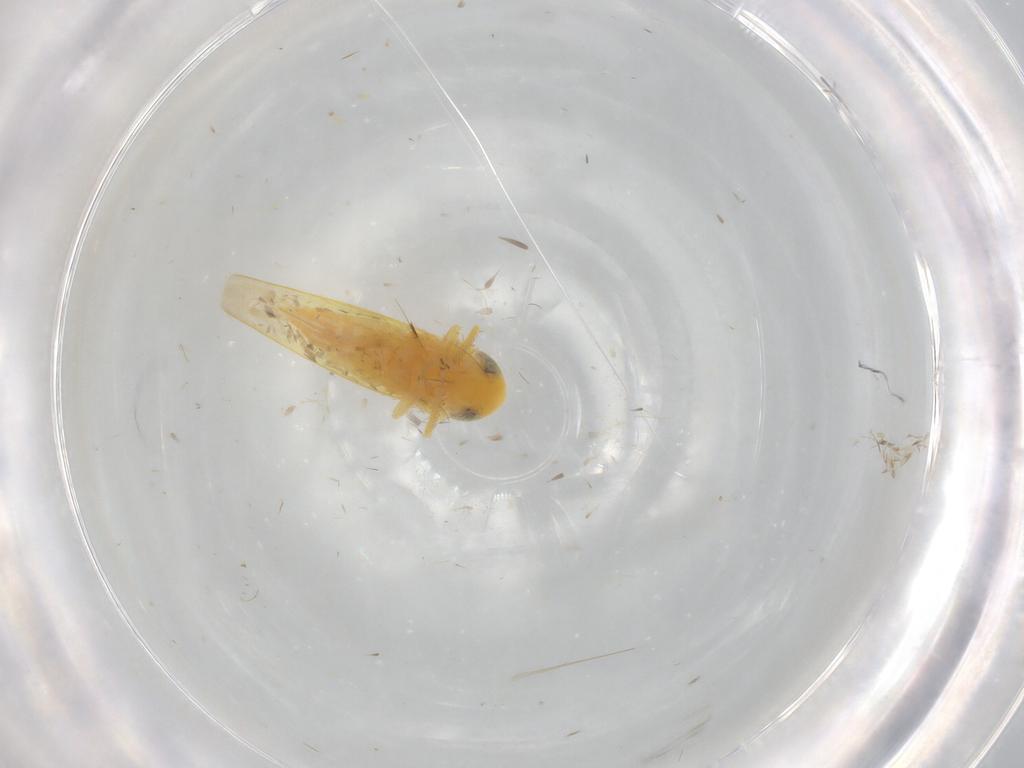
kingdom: Animalia
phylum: Arthropoda
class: Insecta
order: Hemiptera
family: Cicadellidae
